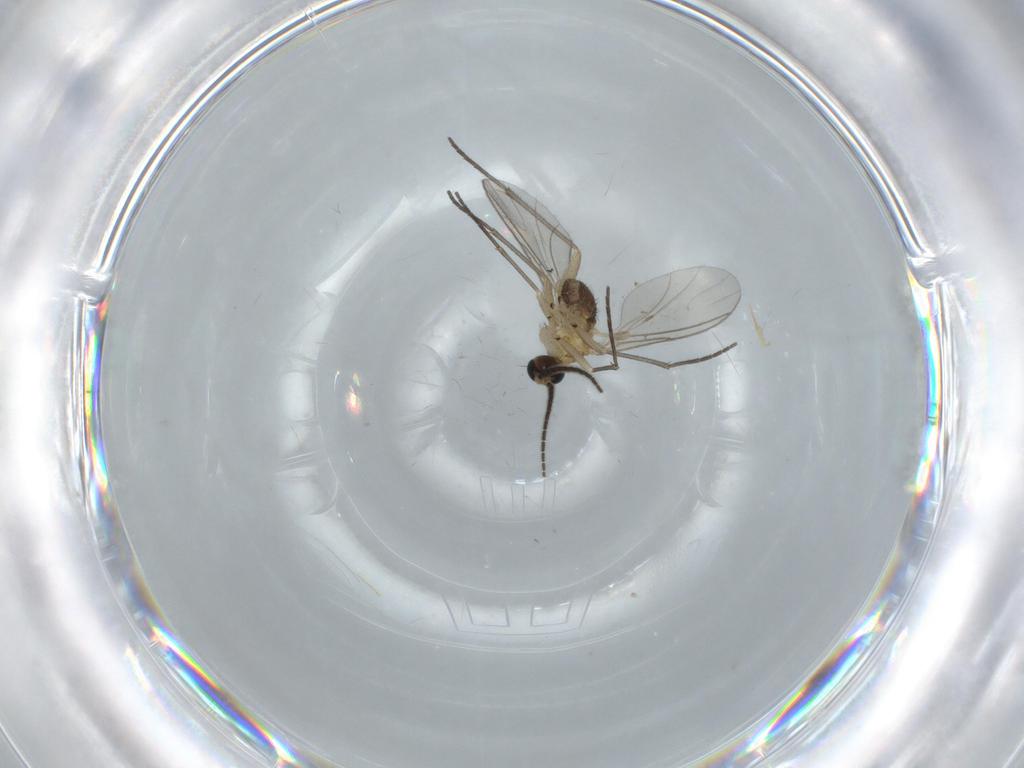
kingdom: Animalia
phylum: Arthropoda
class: Insecta
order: Diptera
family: Sciaridae
